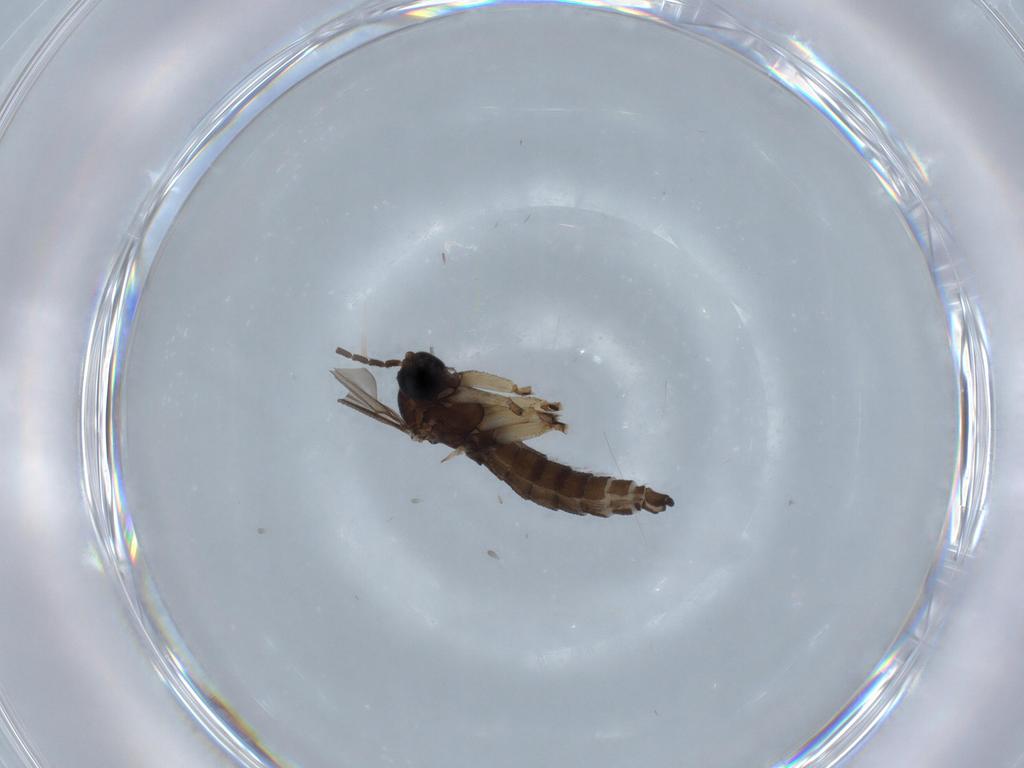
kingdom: Animalia
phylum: Arthropoda
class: Insecta
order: Diptera
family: Sciaridae
